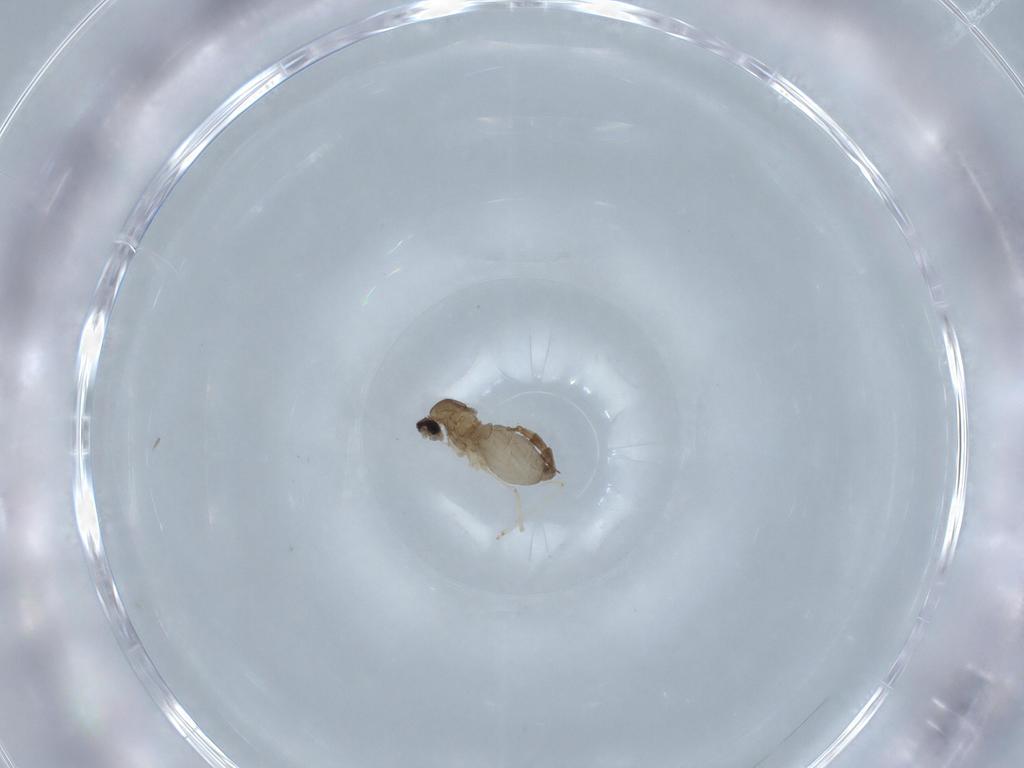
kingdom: Animalia
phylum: Arthropoda
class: Insecta
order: Diptera
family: Cecidomyiidae
